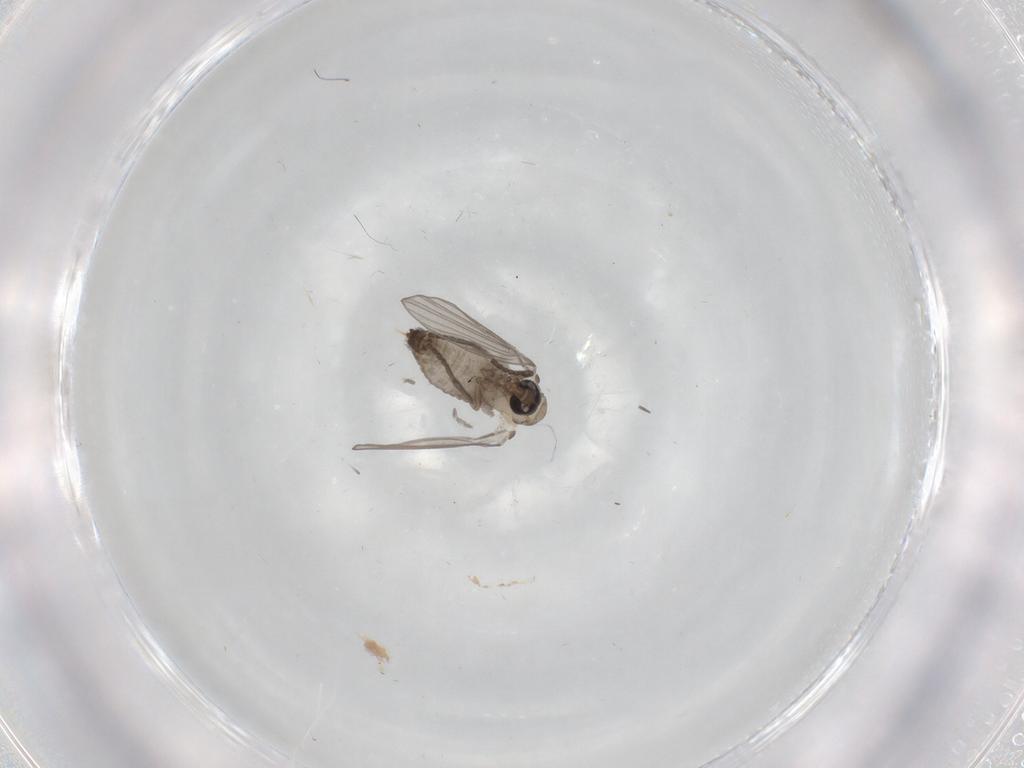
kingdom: Animalia
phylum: Arthropoda
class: Insecta
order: Diptera
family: Psychodidae
